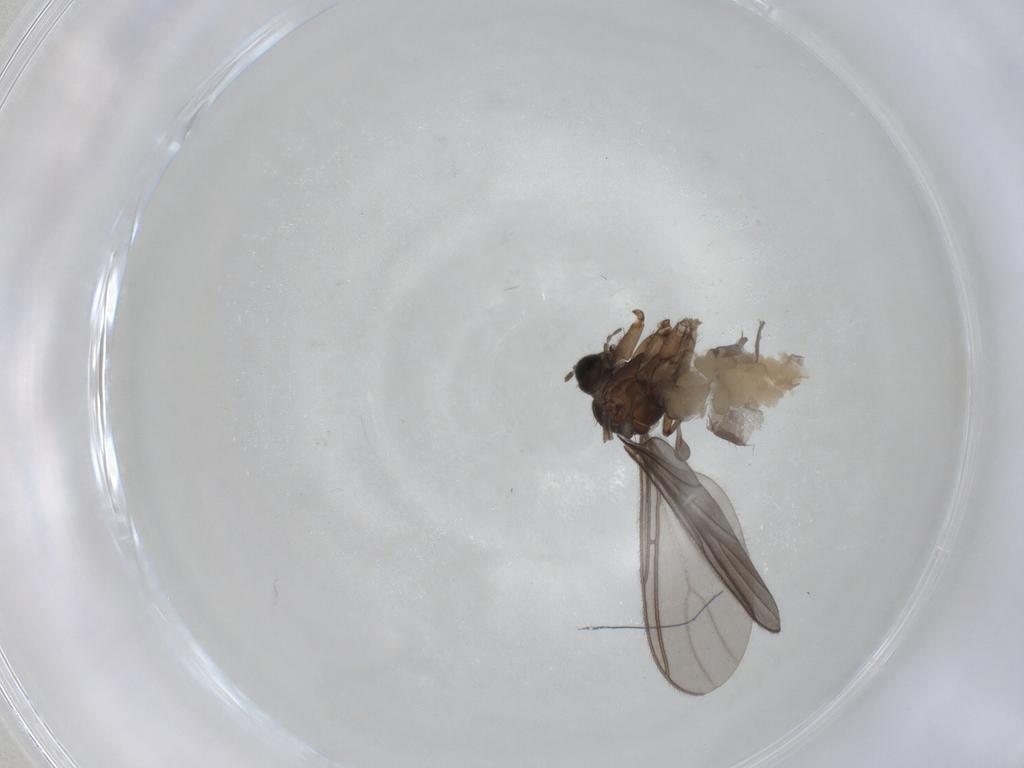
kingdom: Animalia
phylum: Arthropoda
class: Insecta
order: Diptera
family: Sciaridae
